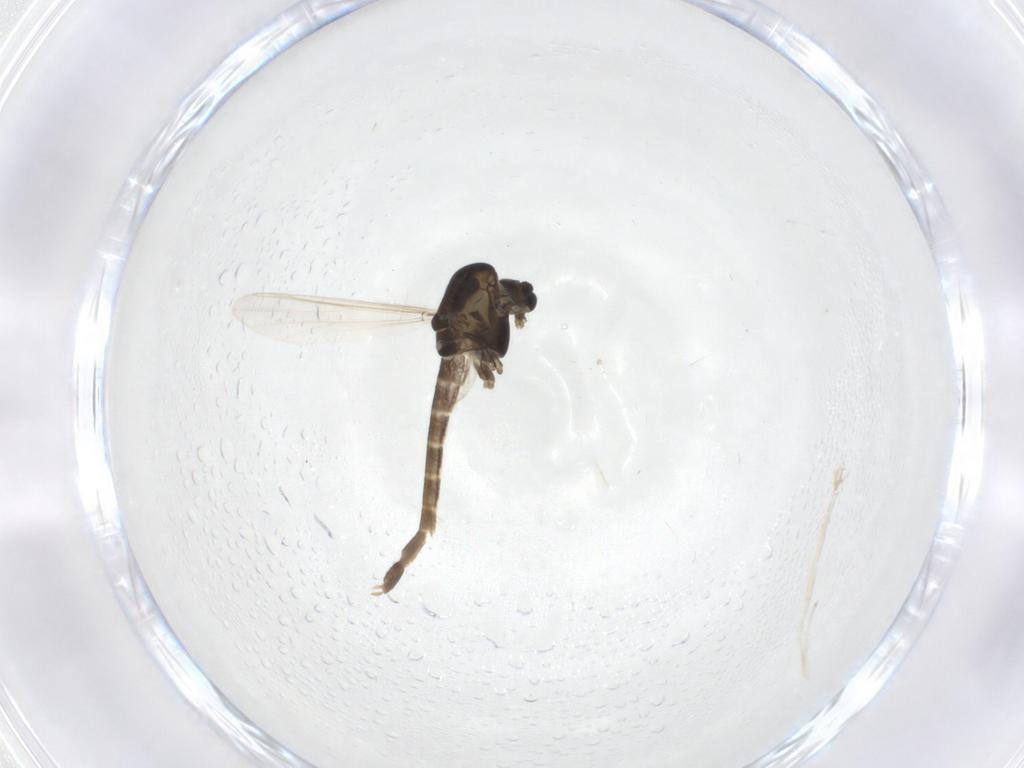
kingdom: Animalia
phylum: Arthropoda
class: Insecta
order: Diptera
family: Chironomidae
